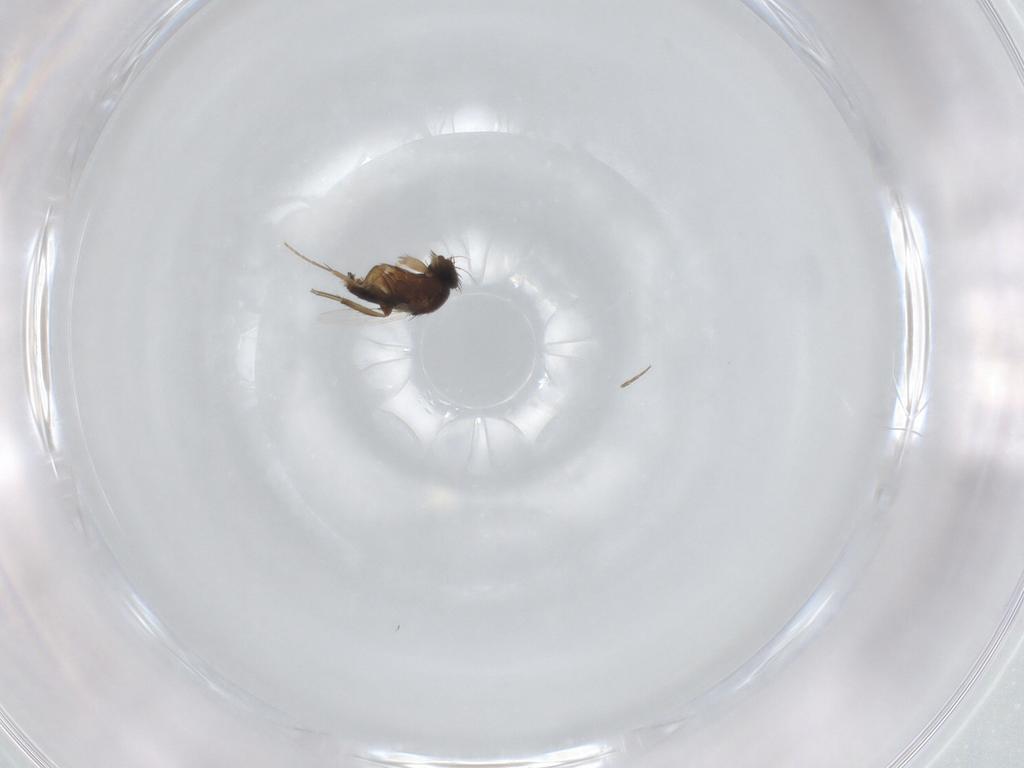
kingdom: Animalia
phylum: Arthropoda
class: Insecta
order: Diptera
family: Phoridae
